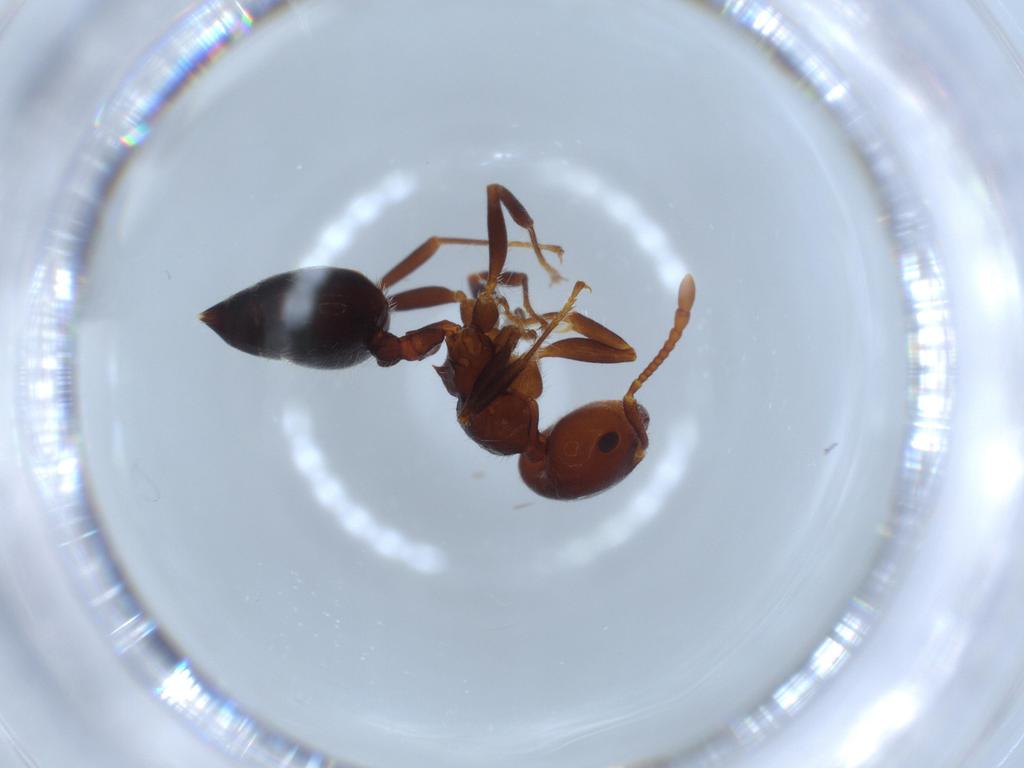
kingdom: Animalia
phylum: Arthropoda
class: Insecta
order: Hymenoptera
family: Formicidae
